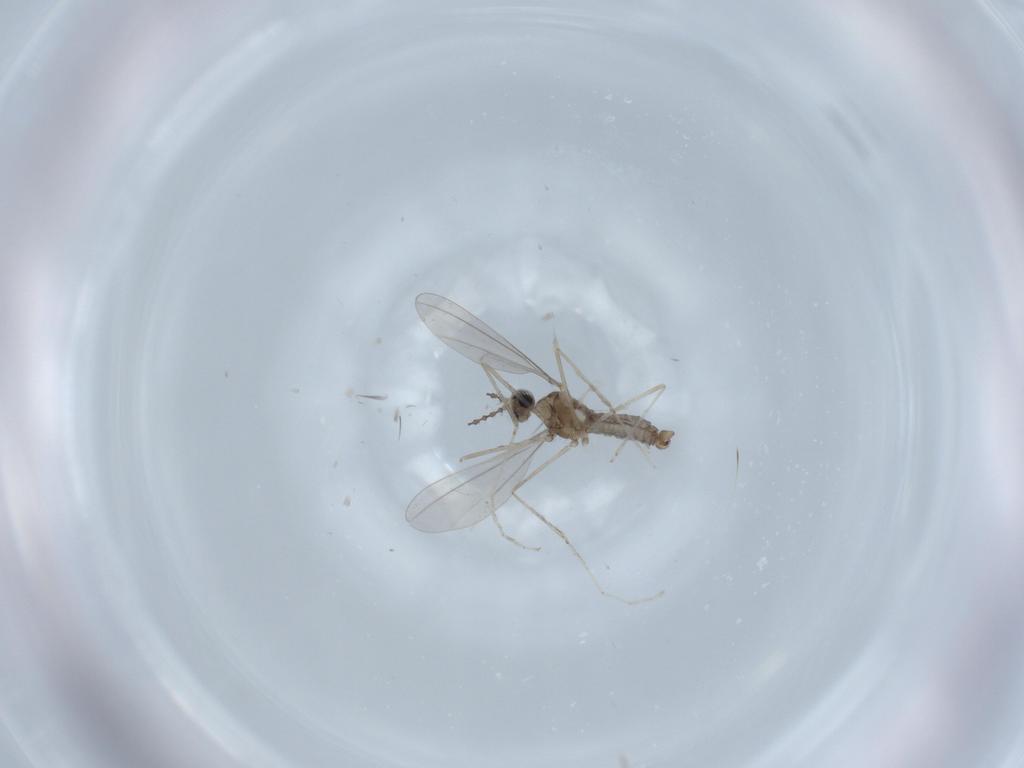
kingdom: Animalia
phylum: Arthropoda
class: Insecta
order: Diptera
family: Cecidomyiidae
